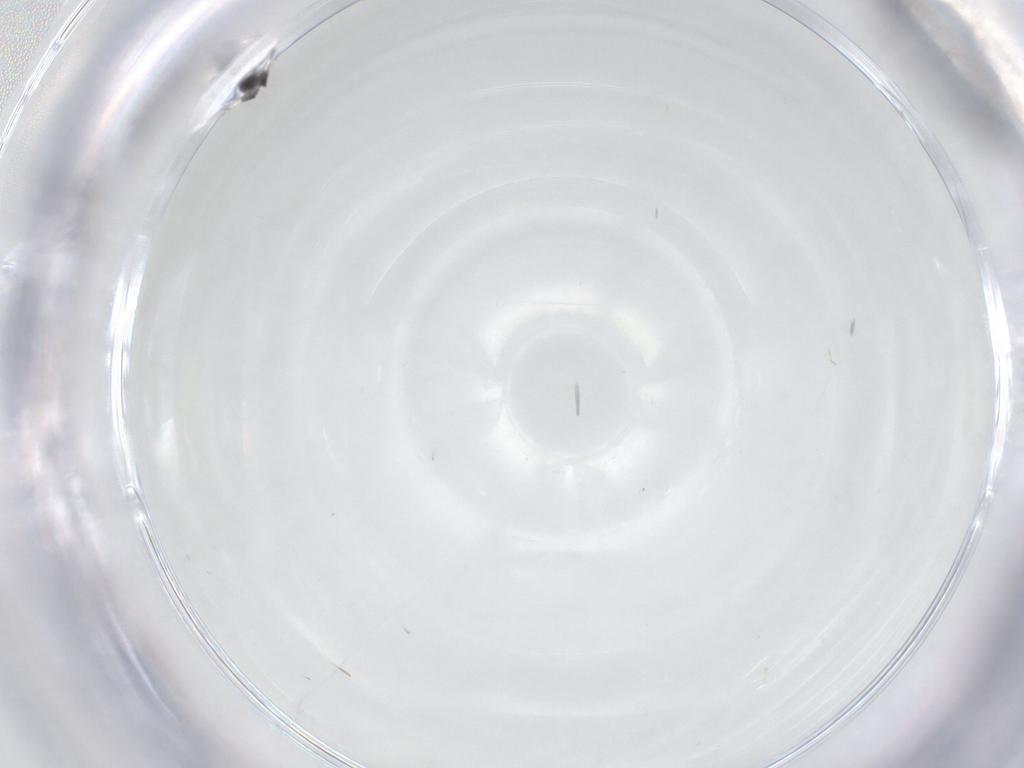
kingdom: Animalia
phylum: Arthropoda
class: Insecta
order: Hymenoptera
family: Scelionidae
